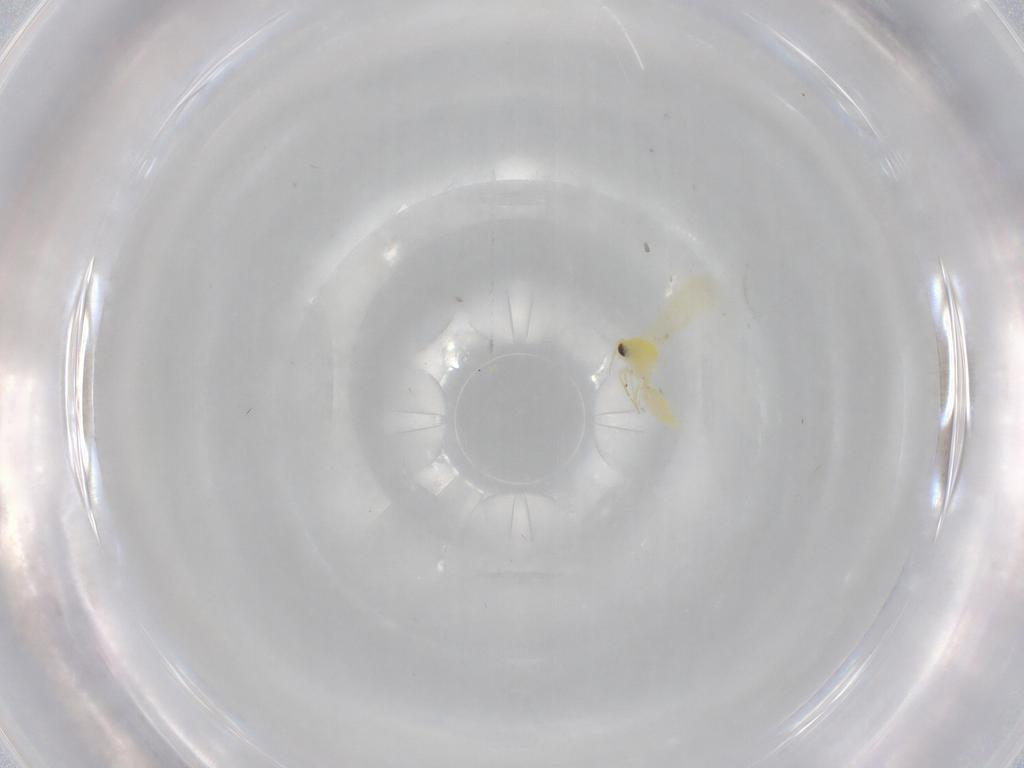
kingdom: Animalia
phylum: Arthropoda
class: Insecta
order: Hemiptera
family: Aleyrodidae
